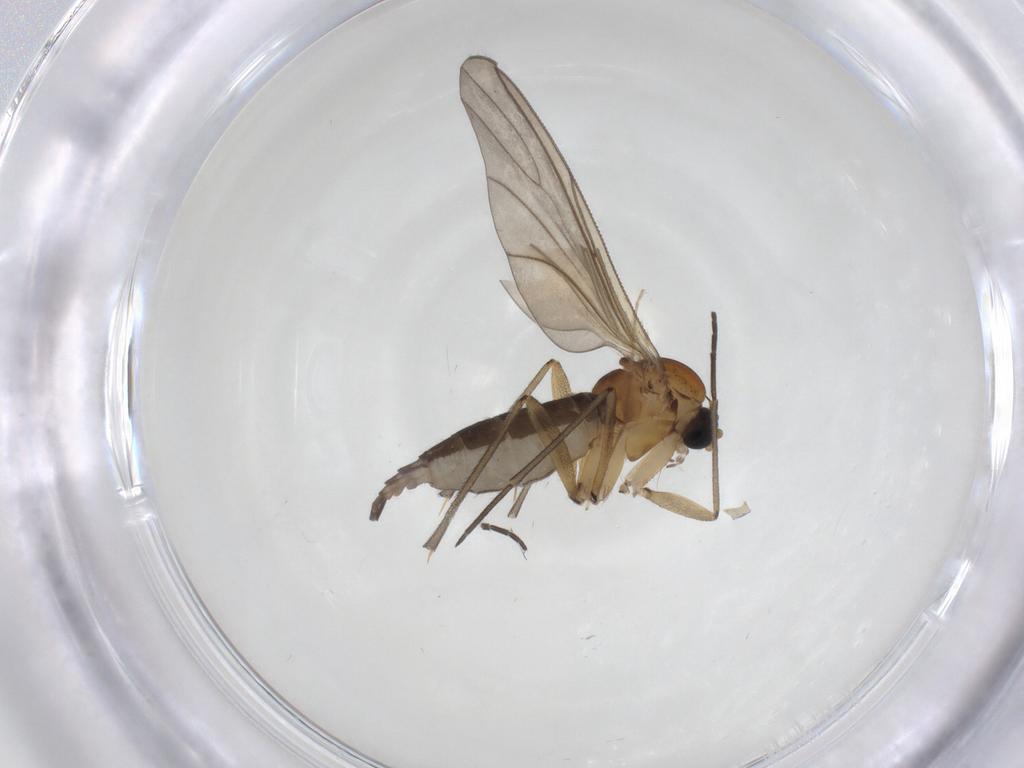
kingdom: Animalia
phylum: Arthropoda
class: Insecta
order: Diptera
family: Sciaridae
